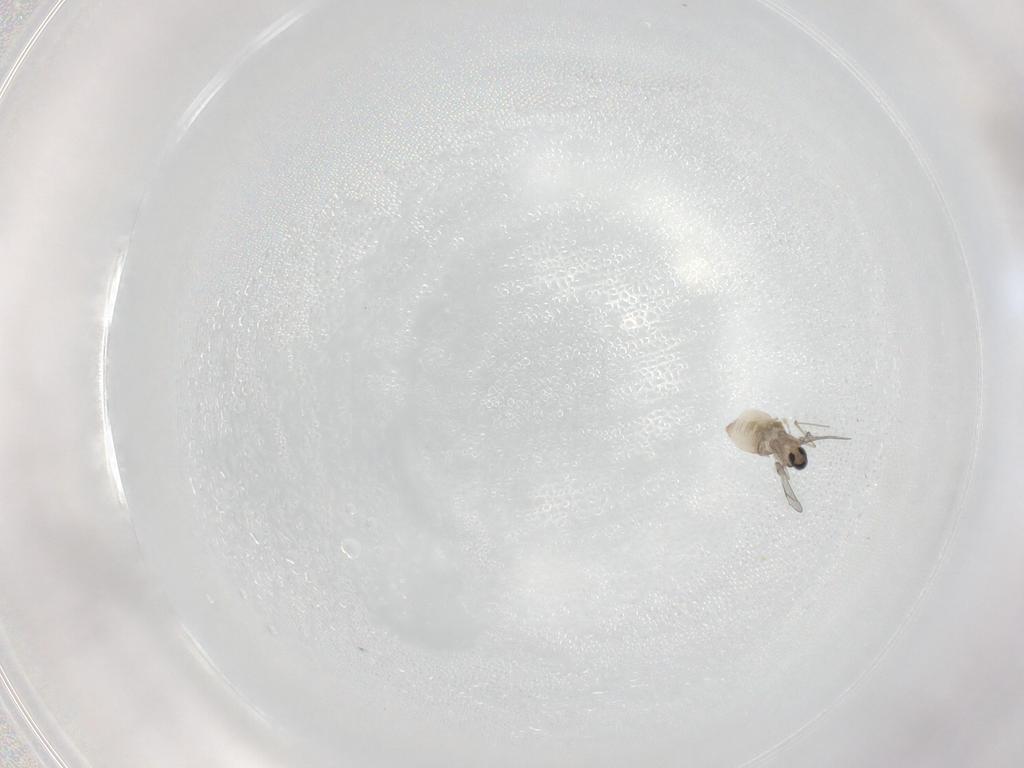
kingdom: Animalia
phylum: Arthropoda
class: Insecta
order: Diptera
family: Cecidomyiidae
